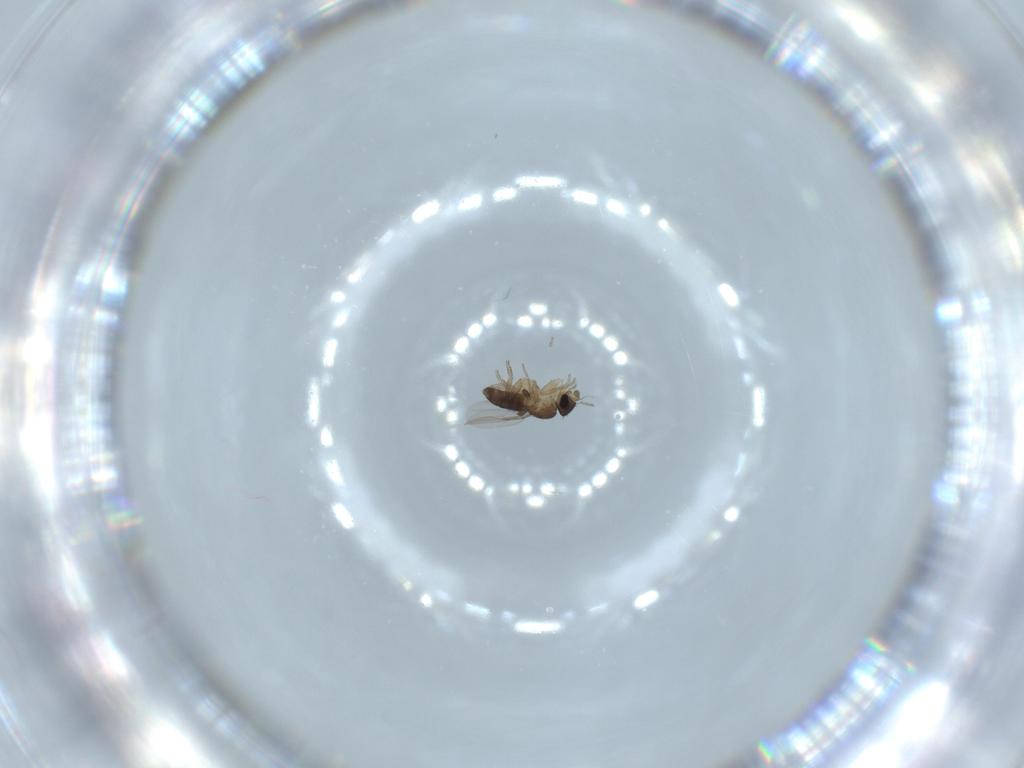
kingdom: Animalia
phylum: Arthropoda
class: Insecta
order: Diptera
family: Phoridae
